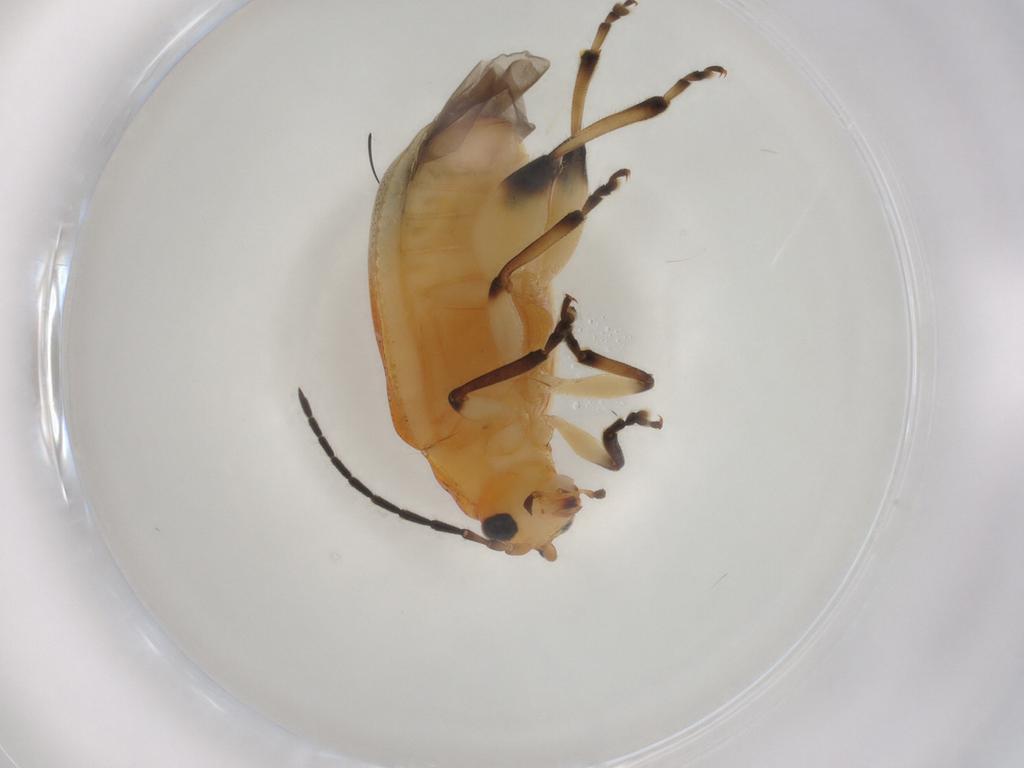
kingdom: Animalia
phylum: Arthropoda
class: Insecta
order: Coleoptera
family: Chrysomelidae
